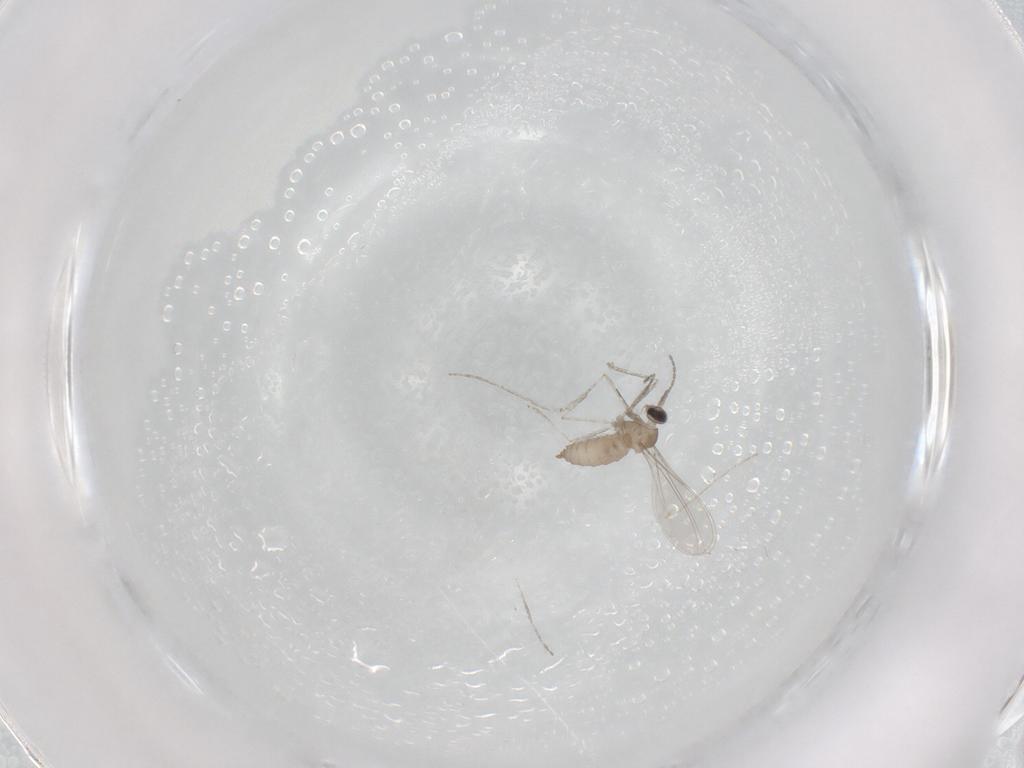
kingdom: Animalia
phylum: Arthropoda
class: Insecta
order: Diptera
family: Cecidomyiidae
